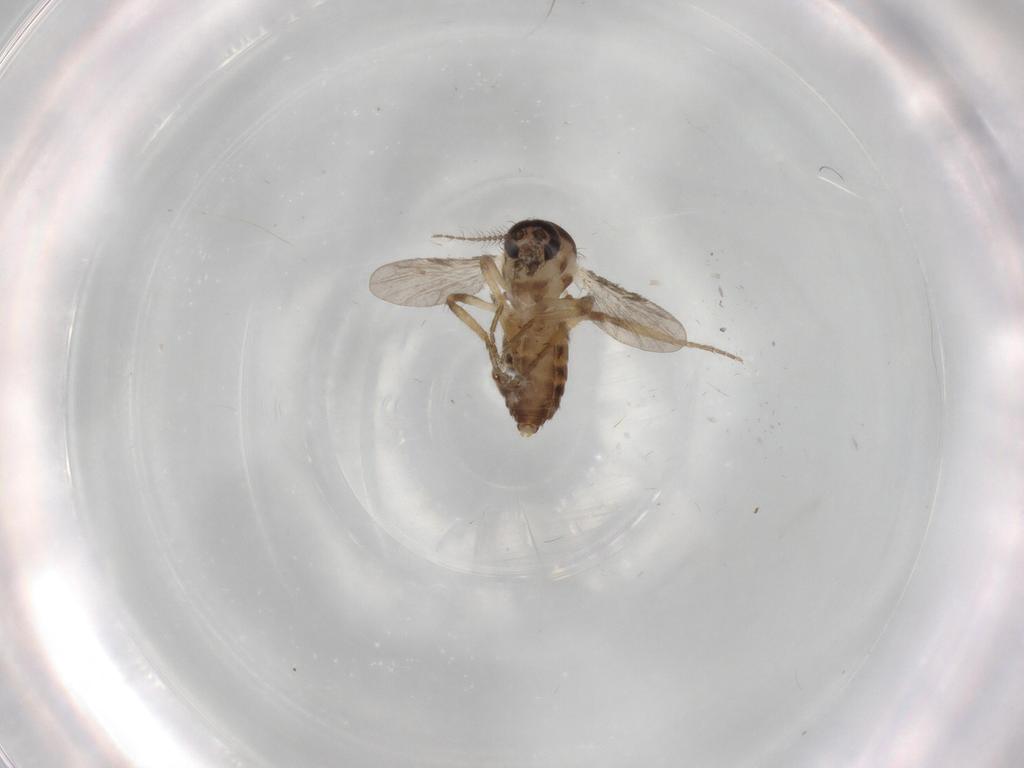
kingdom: Animalia
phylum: Arthropoda
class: Insecta
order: Diptera
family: Ceratopogonidae
